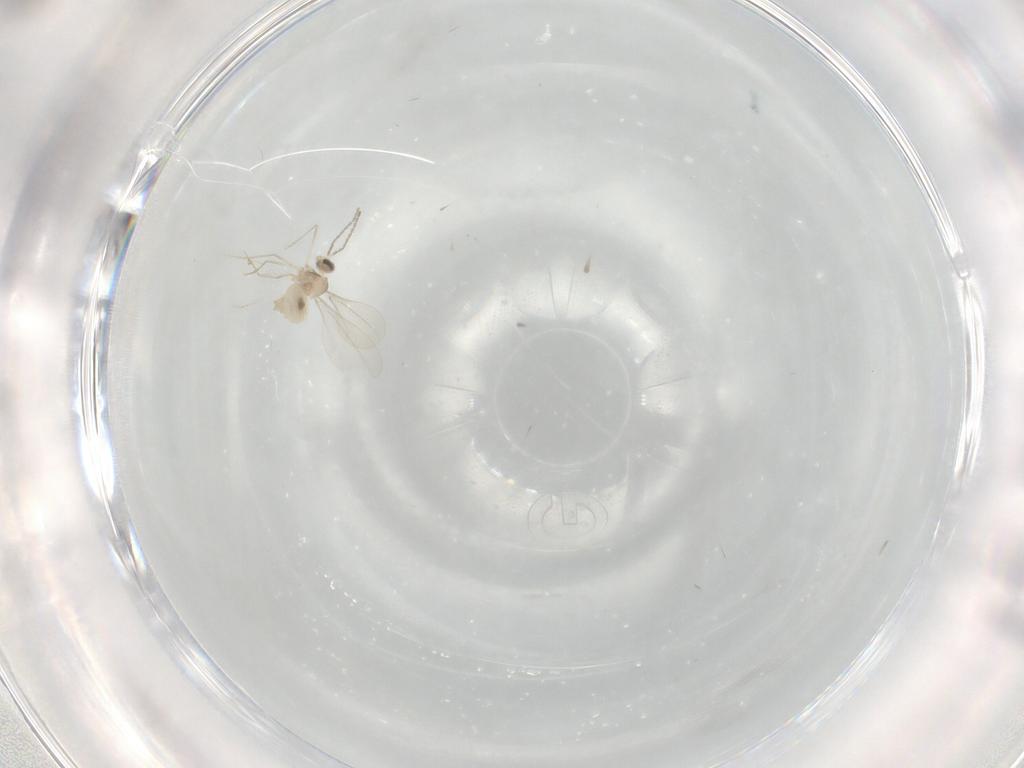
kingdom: Animalia
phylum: Arthropoda
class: Insecta
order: Diptera
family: Cecidomyiidae
